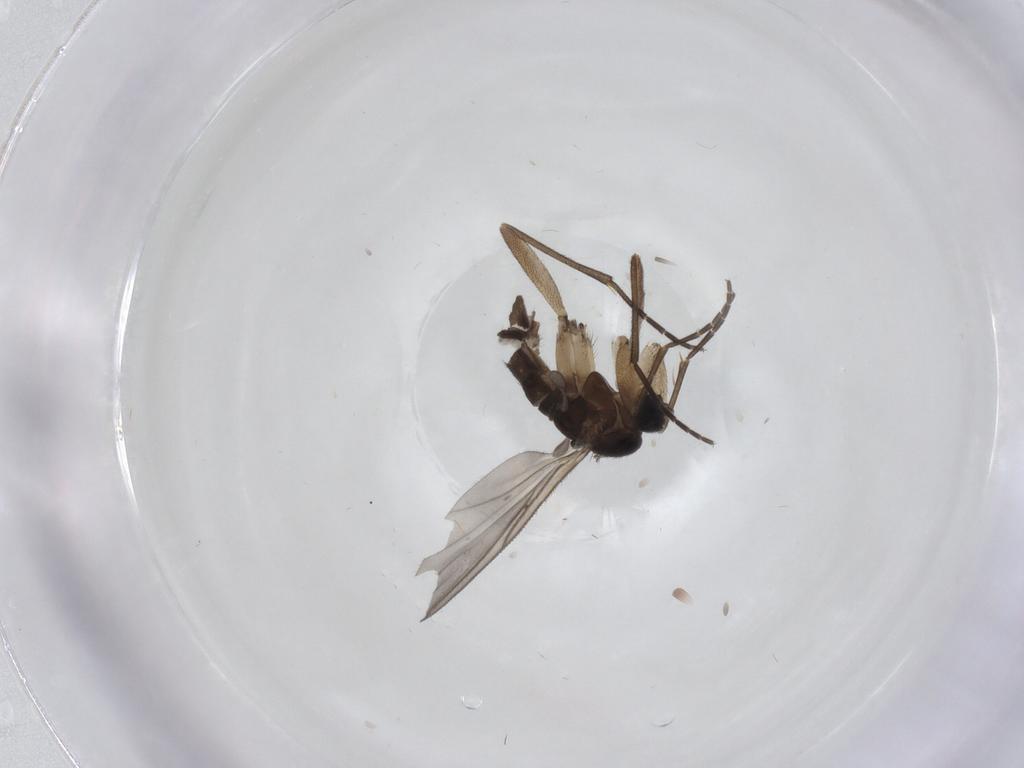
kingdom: Animalia
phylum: Arthropoda
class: Insecta
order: Diptera
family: Sciaridae
